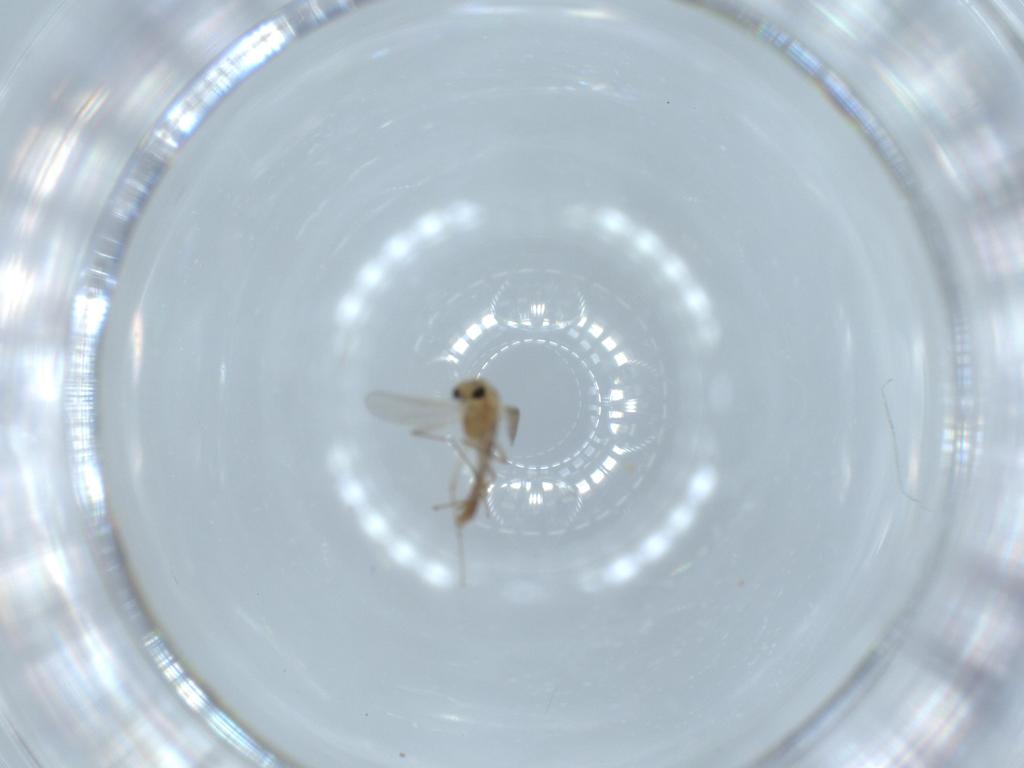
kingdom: Animalia
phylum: Arthropoda
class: Insecta
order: Diptera
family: Chironomidae
